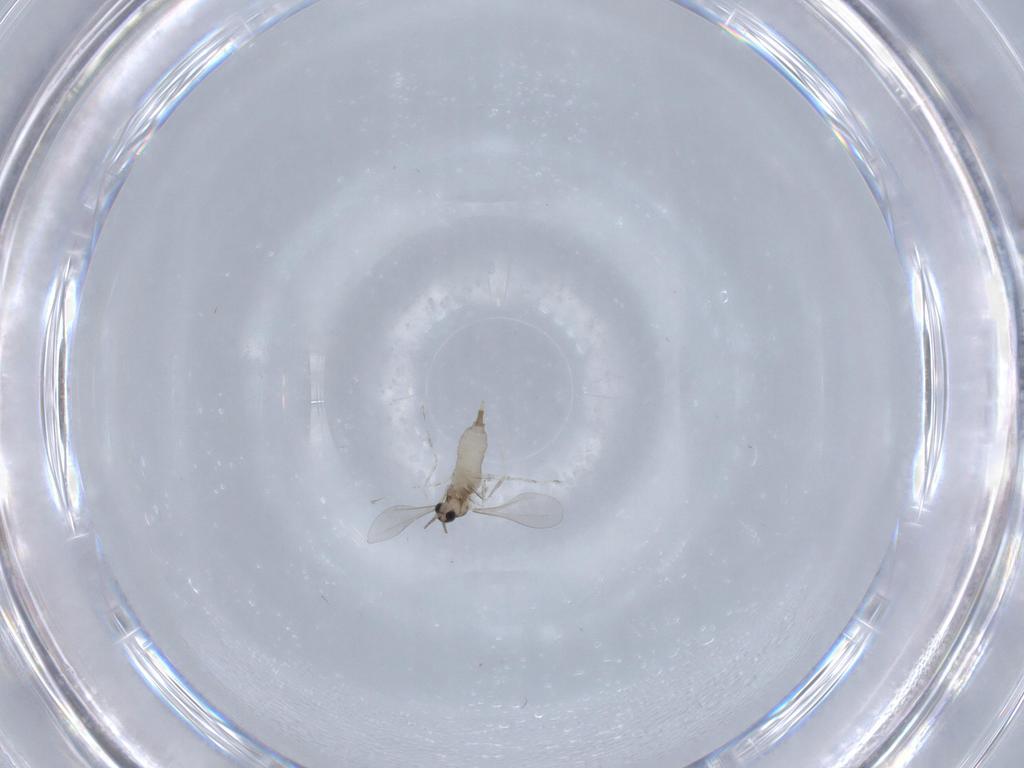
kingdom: Animalia
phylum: Arthropoda
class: Insecta
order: Diptera
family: Cecidomyiidae
